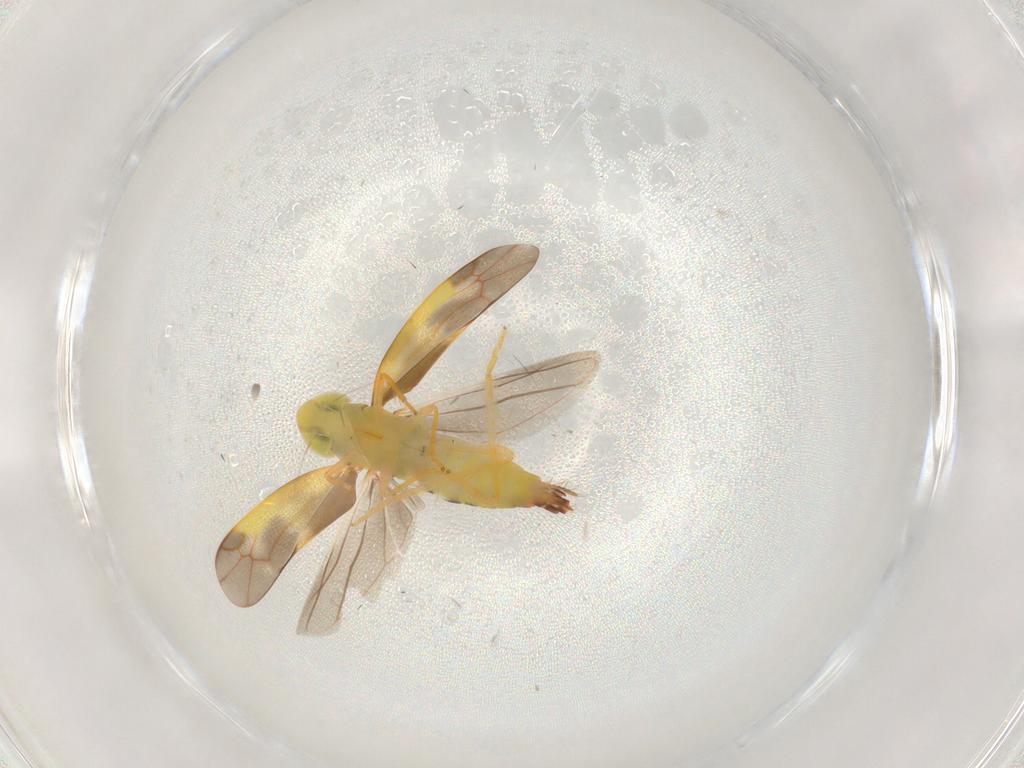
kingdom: Animalia
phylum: Arthropoda
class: Insecta
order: Hemiptera
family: Cicadellidae
